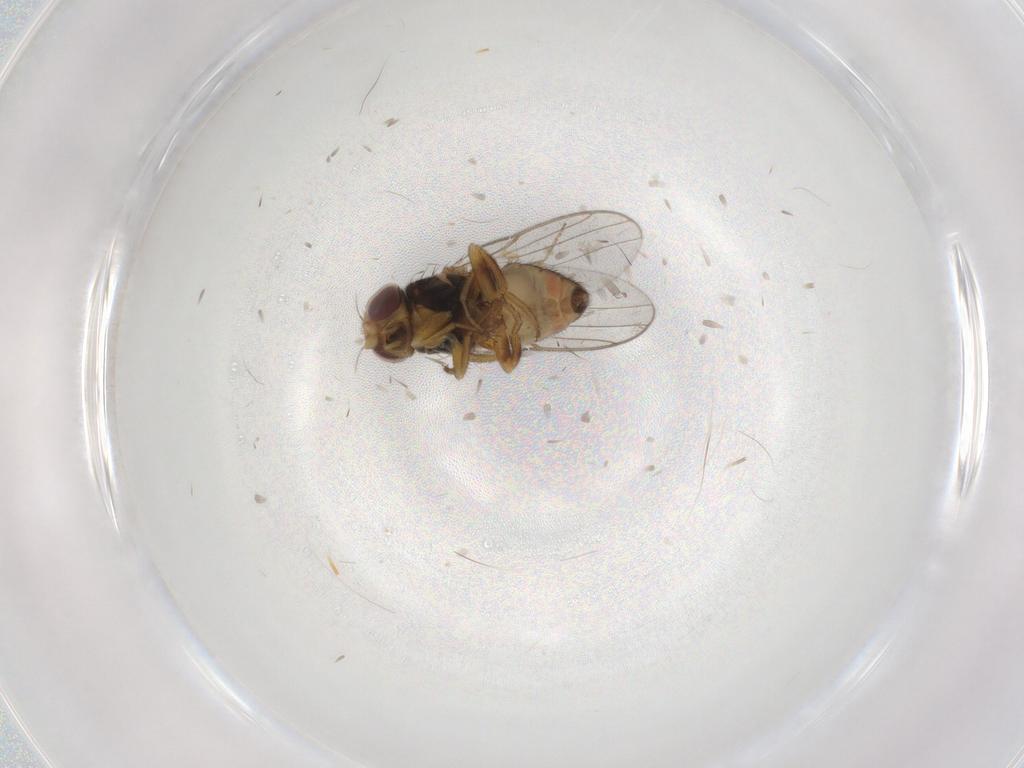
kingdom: Animalia
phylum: Arthropoda
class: Insecta
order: Diptera
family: Chloropidae
